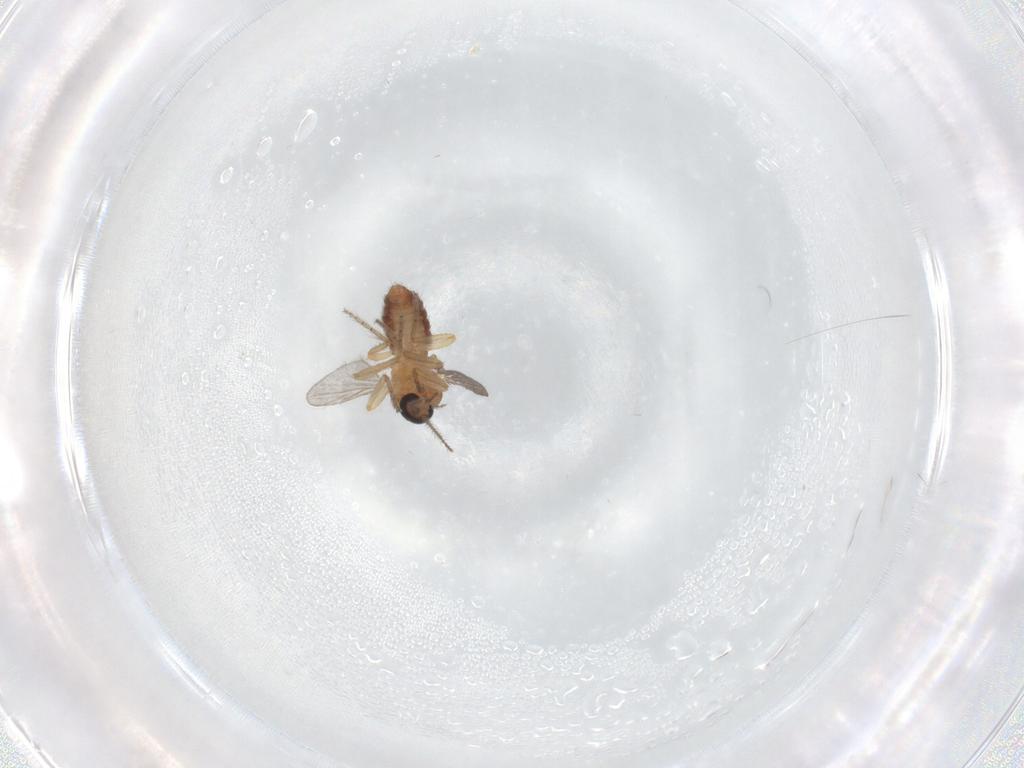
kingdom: Animalia
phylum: Arthropoda
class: Insecta
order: Diptera
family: Ceratopogonidae
